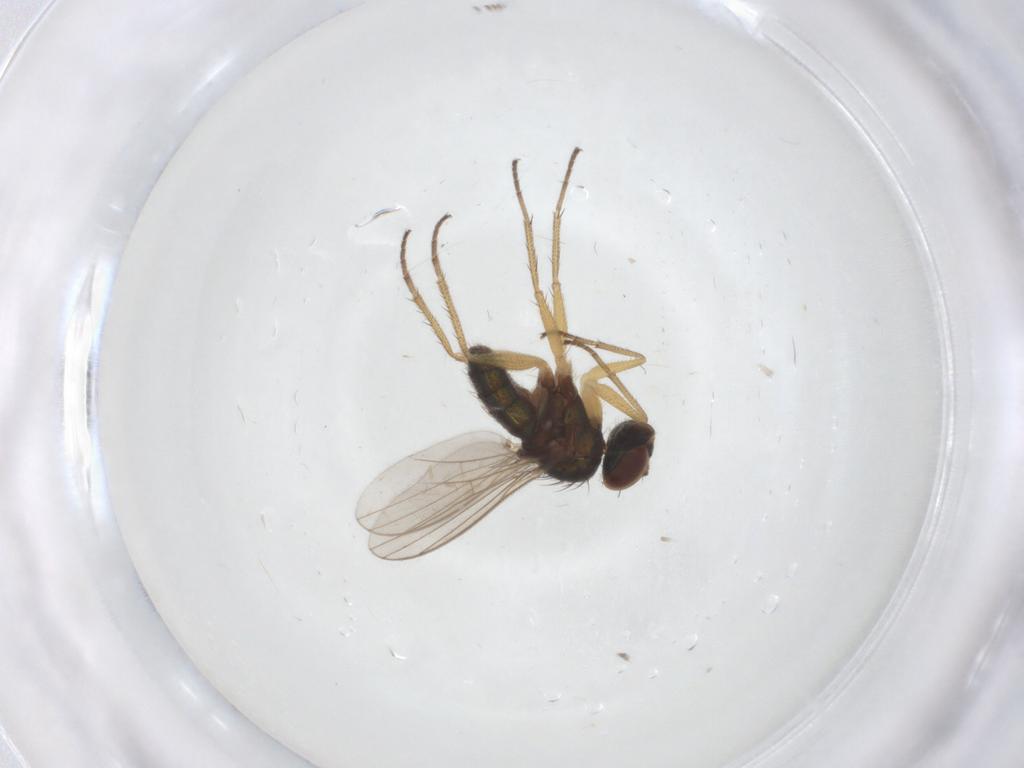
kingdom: Animalia
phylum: Arthropoda
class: Insecta
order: Diptera
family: Dolichopodidae
